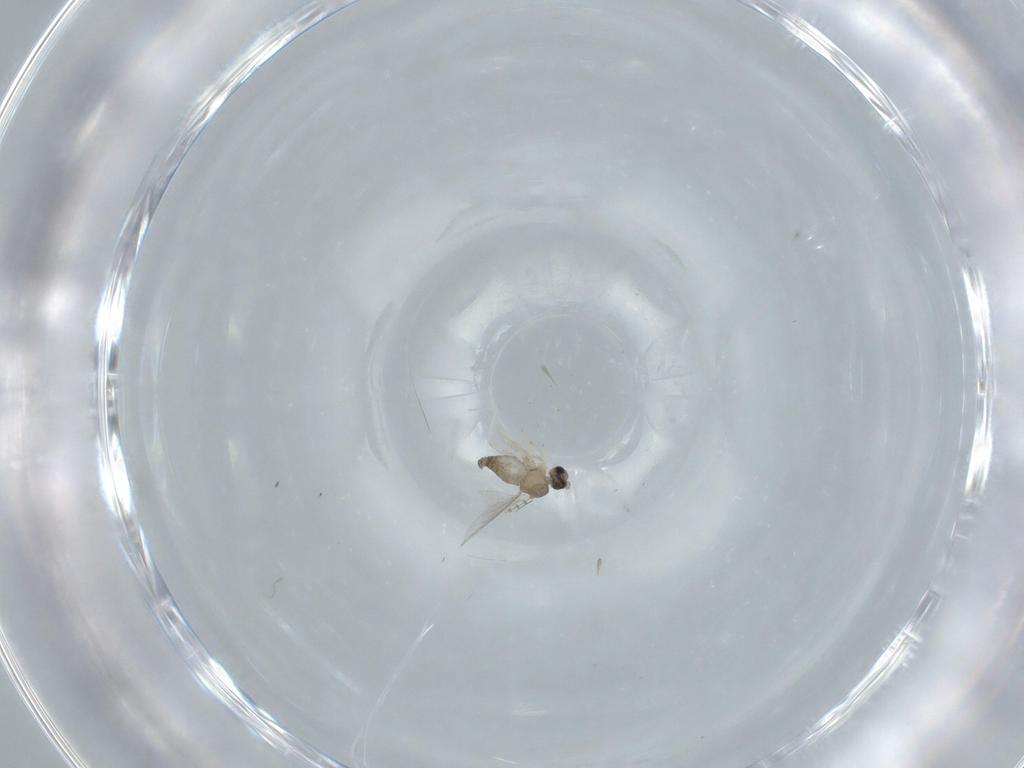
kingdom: Animalia
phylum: Arthropoda
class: Insecta
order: Diptera
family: Cecidomyiidae
